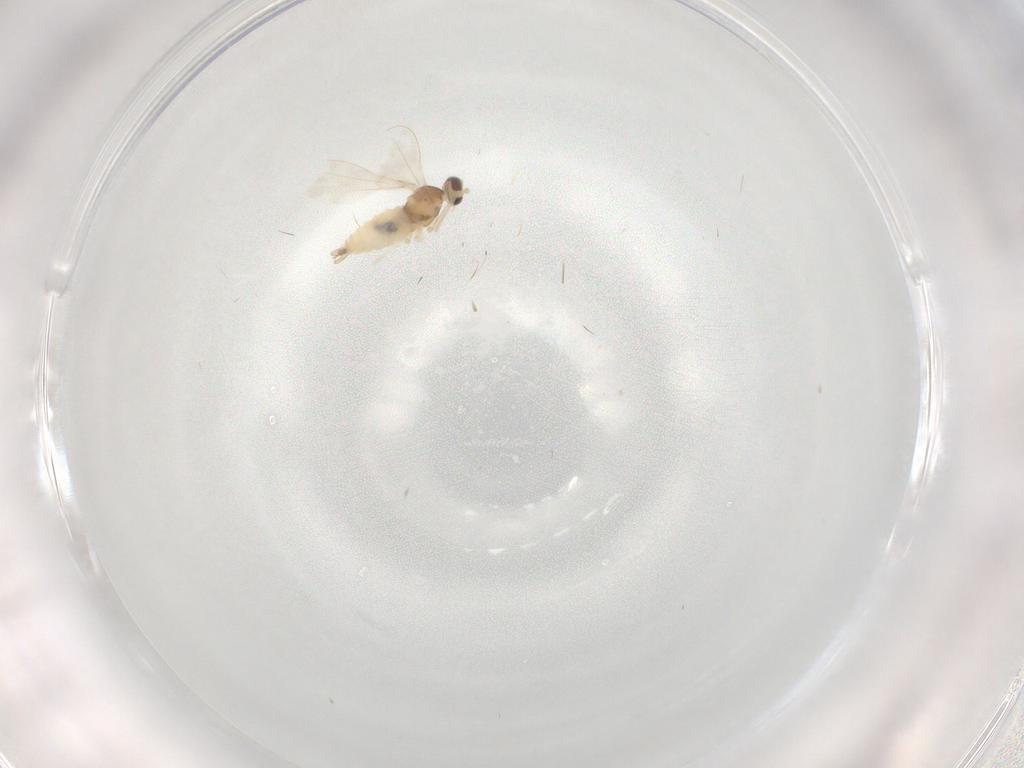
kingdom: Animalia
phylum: Arthropoda
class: Insecta
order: Diptera
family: Cecidomyiidae
